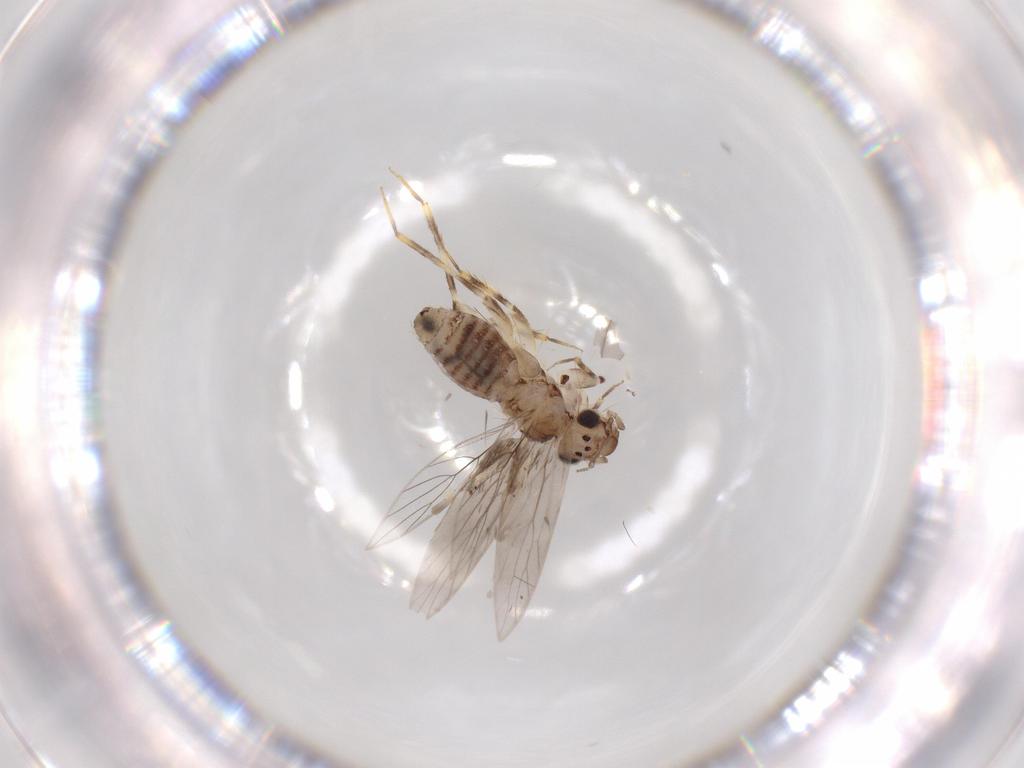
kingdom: Animalia
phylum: Arthropoda
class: Insecta
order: Psocodea
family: Lepidopsocidae
